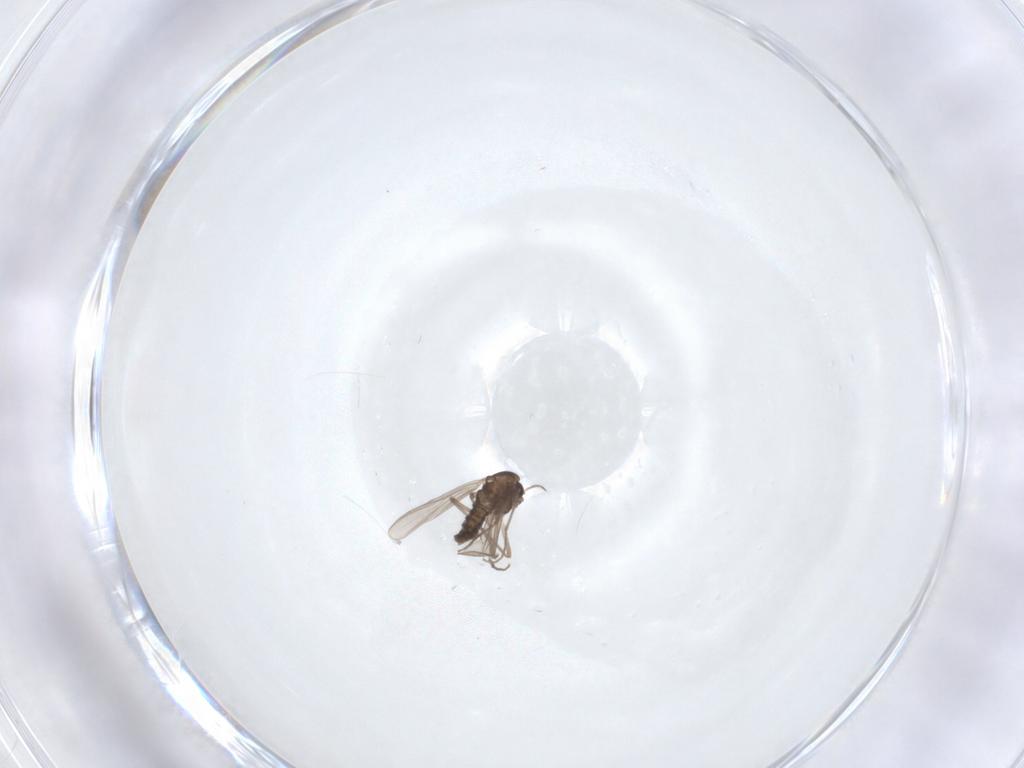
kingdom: Animalia
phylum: Arthropoda
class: Insecta
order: Diptera
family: Chironomidae
